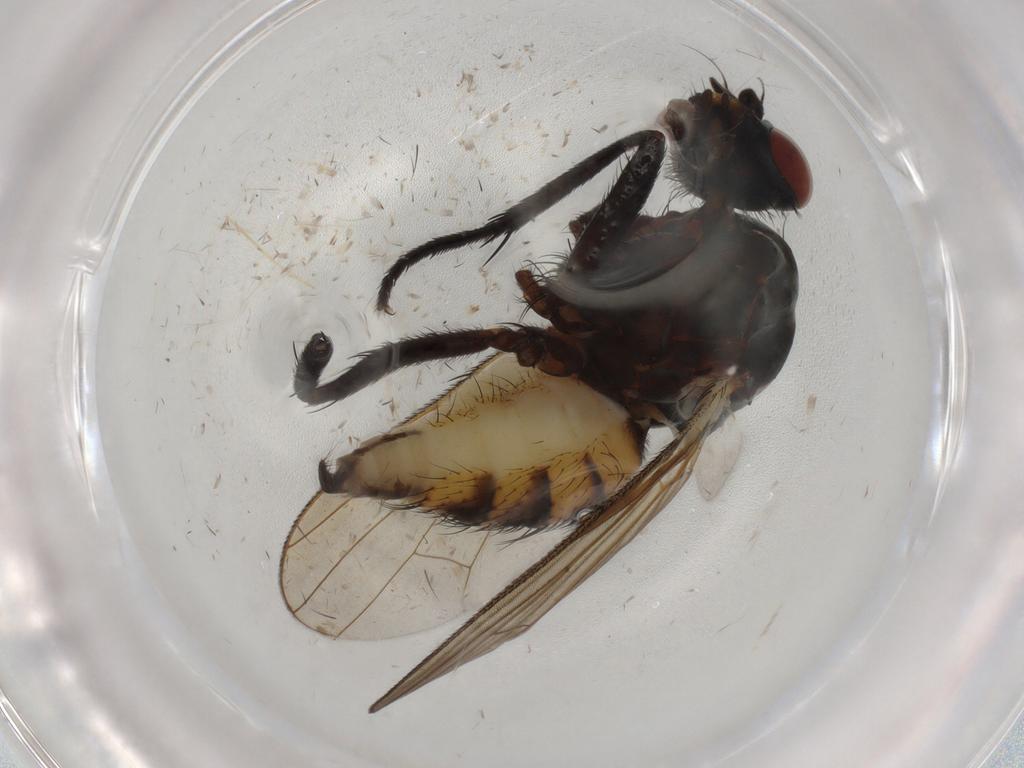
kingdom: Animalia
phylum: Arthropoda
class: Insecta
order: Diptera
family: Anthomyiidae
